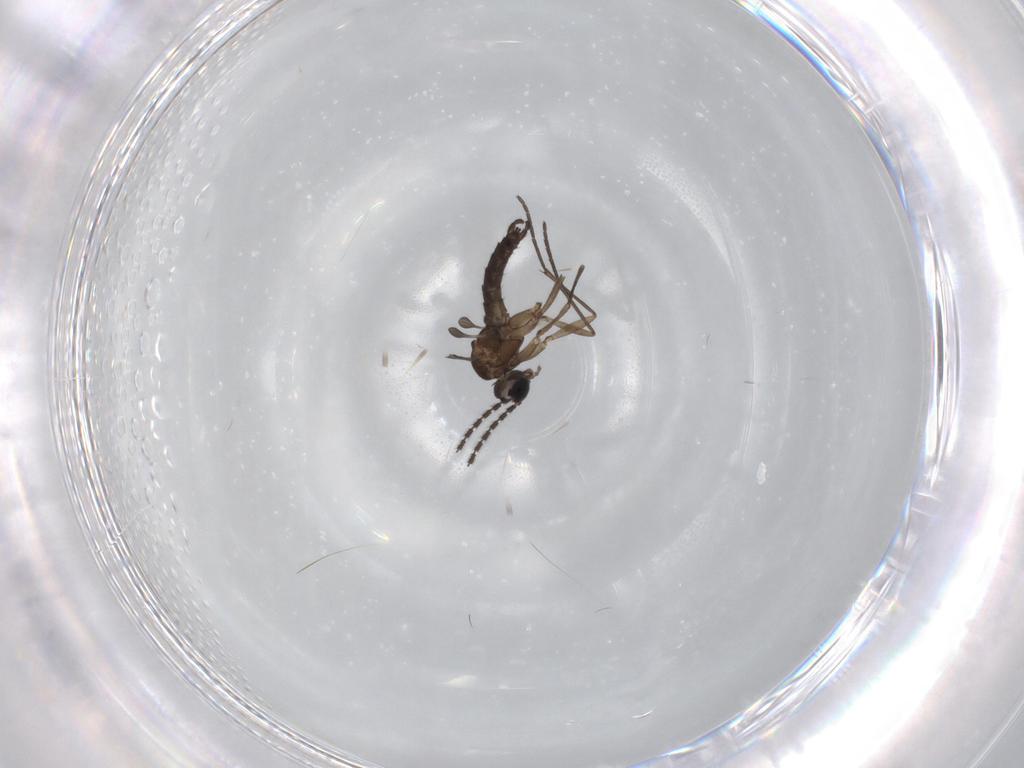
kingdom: Animalia
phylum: Arthropoda
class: Insecta
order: Diptera
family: Sciaridae
